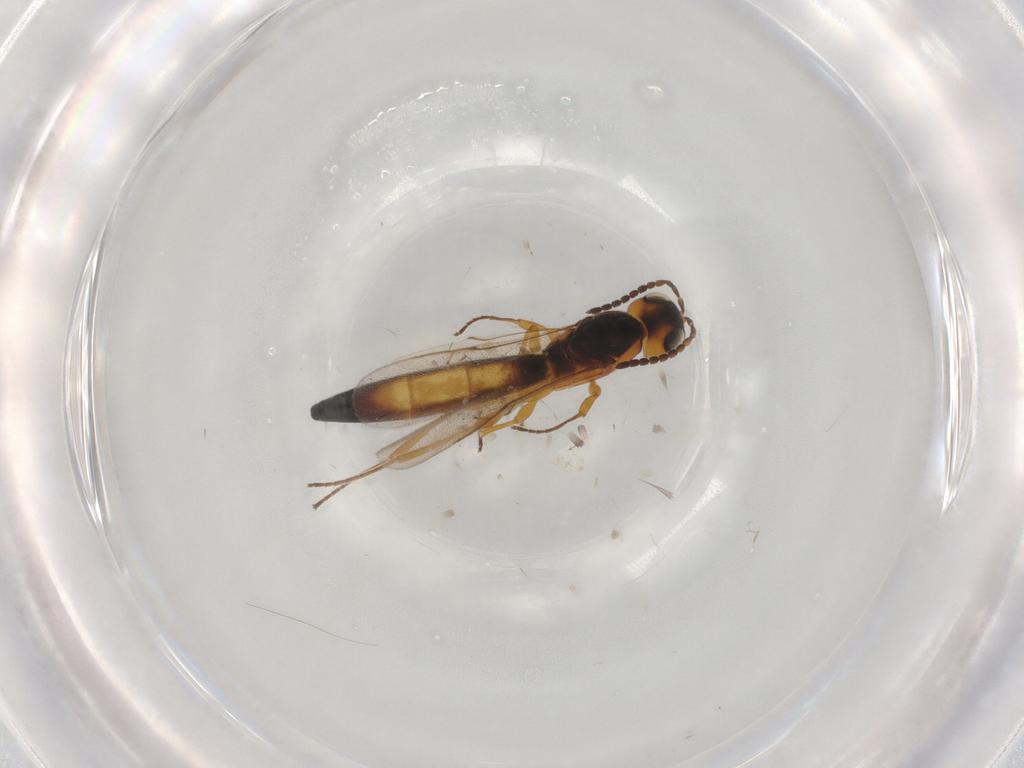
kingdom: Animalia
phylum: Arthropoda
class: Insecta
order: Hymenoptera
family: Scelionidae
